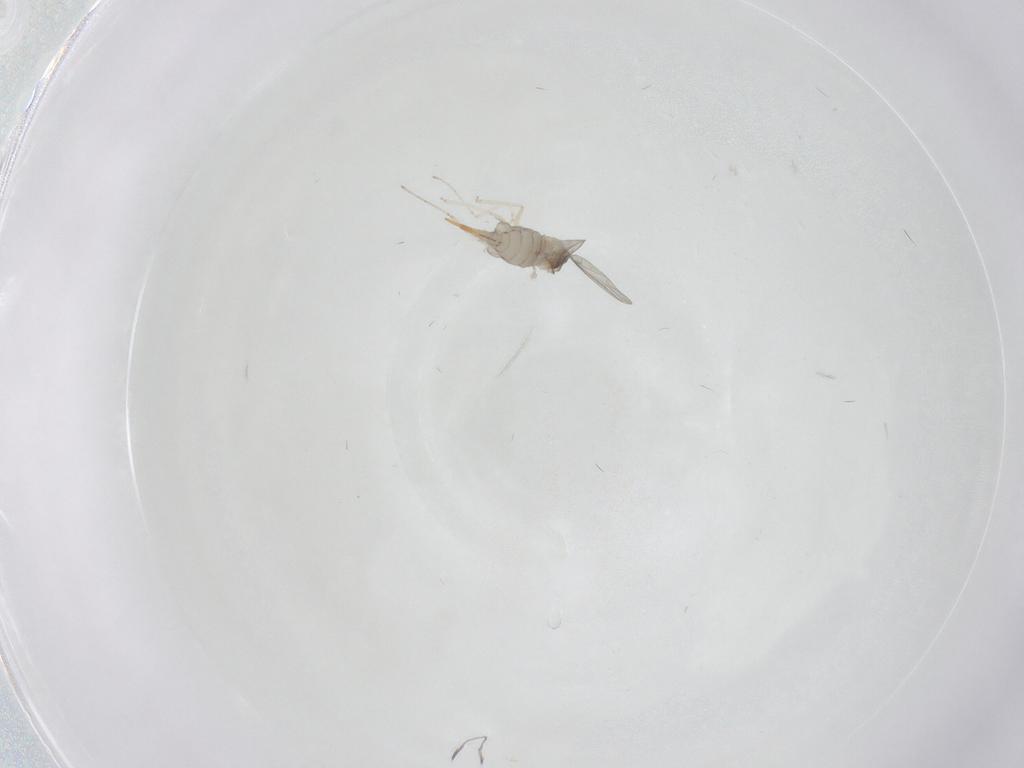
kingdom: Animalia
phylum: Arthropoda
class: Insecta
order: Diptera
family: Cecidomyiidae
